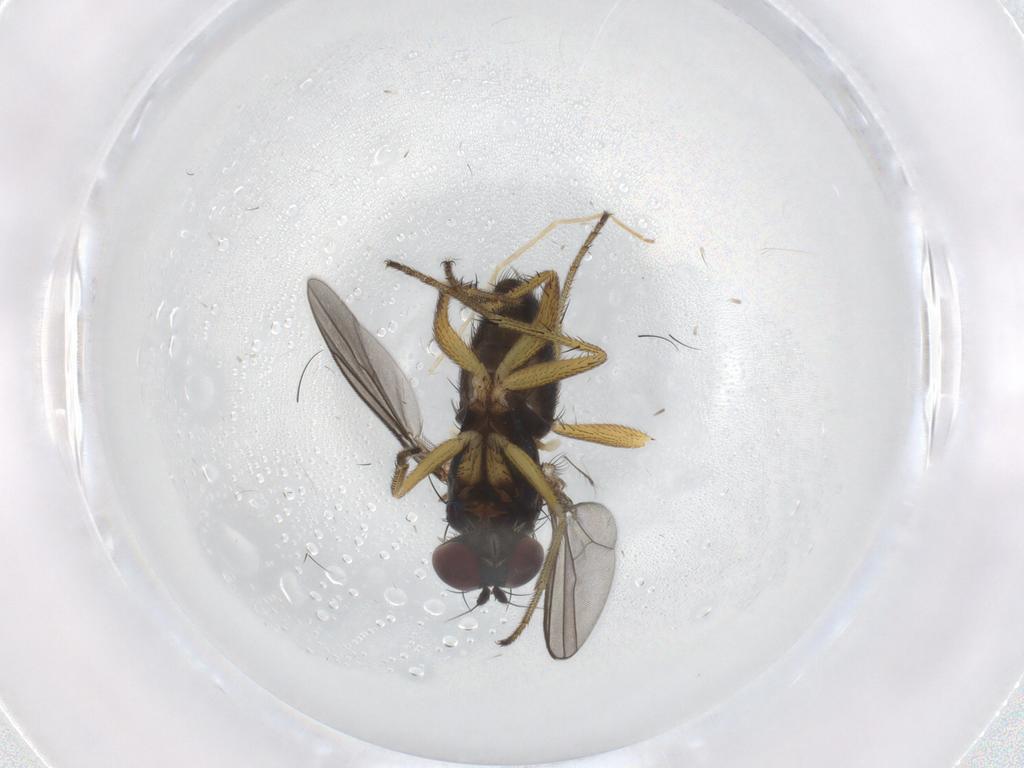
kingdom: Animalia
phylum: Arthropoda
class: Insecta
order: Diptera
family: Dolichopodidae
